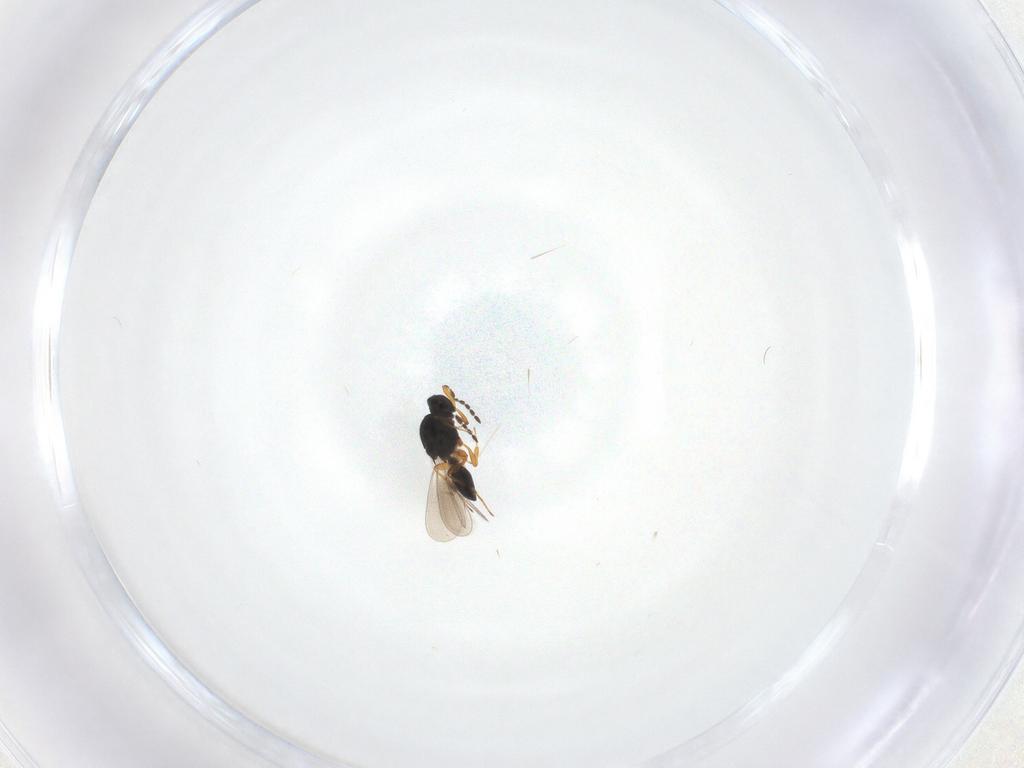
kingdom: Animalia
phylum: Arthropoda
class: Insecta
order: Hymenoptera
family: Platygastridae
